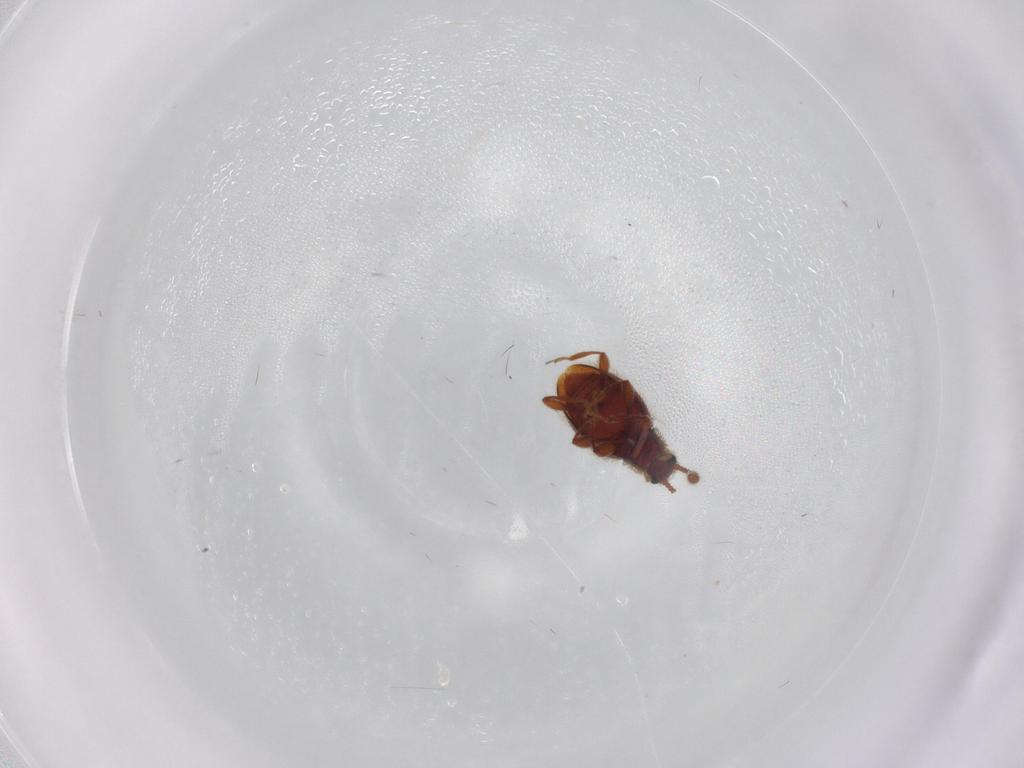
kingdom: Animalia
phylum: Arthropoda
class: Insecta
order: Coleoptera
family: Staphylinidae
